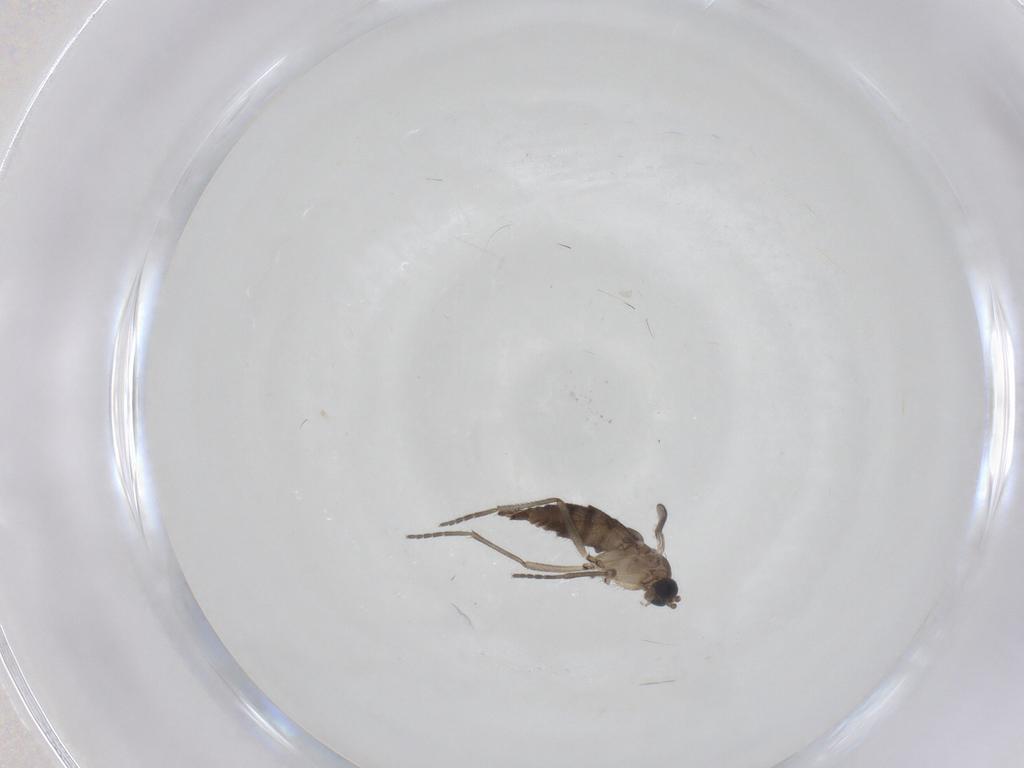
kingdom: Animalia
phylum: Arthropoda
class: Insecta
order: Diptera
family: Sciaridae
